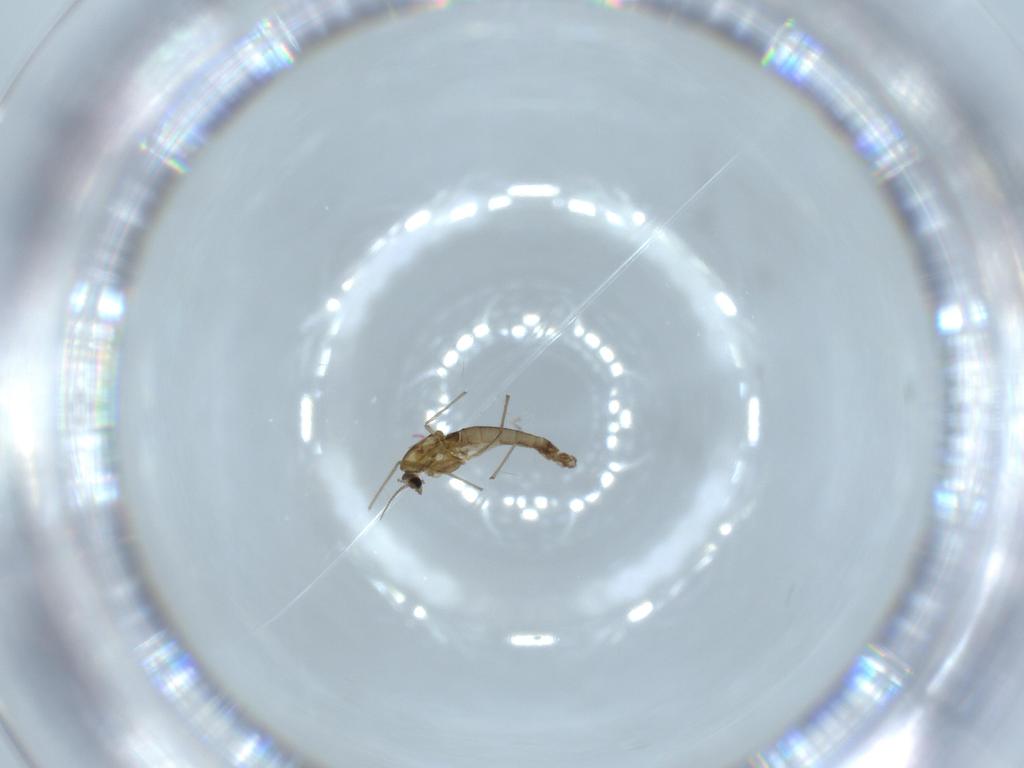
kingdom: Animalia
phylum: Arthropoda
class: Insecta
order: Diptera
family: Chironomidae
